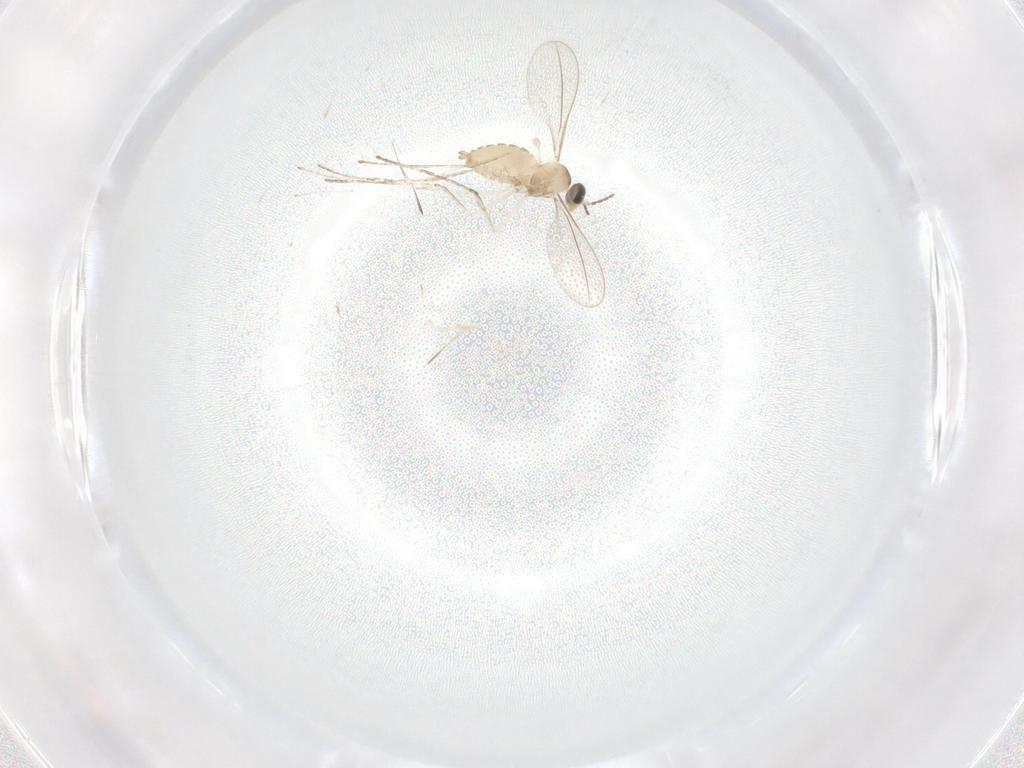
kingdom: Animalia
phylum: Arthropoda
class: Insecta
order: Diptera
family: Cecidomyiidae
